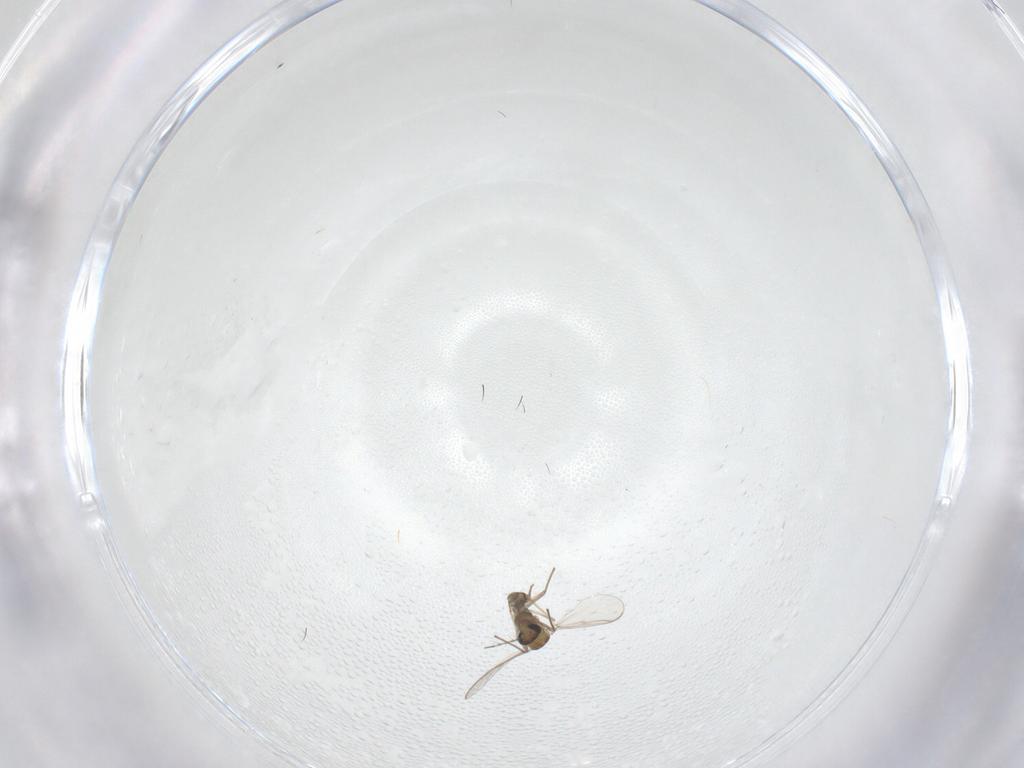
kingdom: Animalia
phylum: Arthropoda
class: Insecta
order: Diptera
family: Chironomidae
